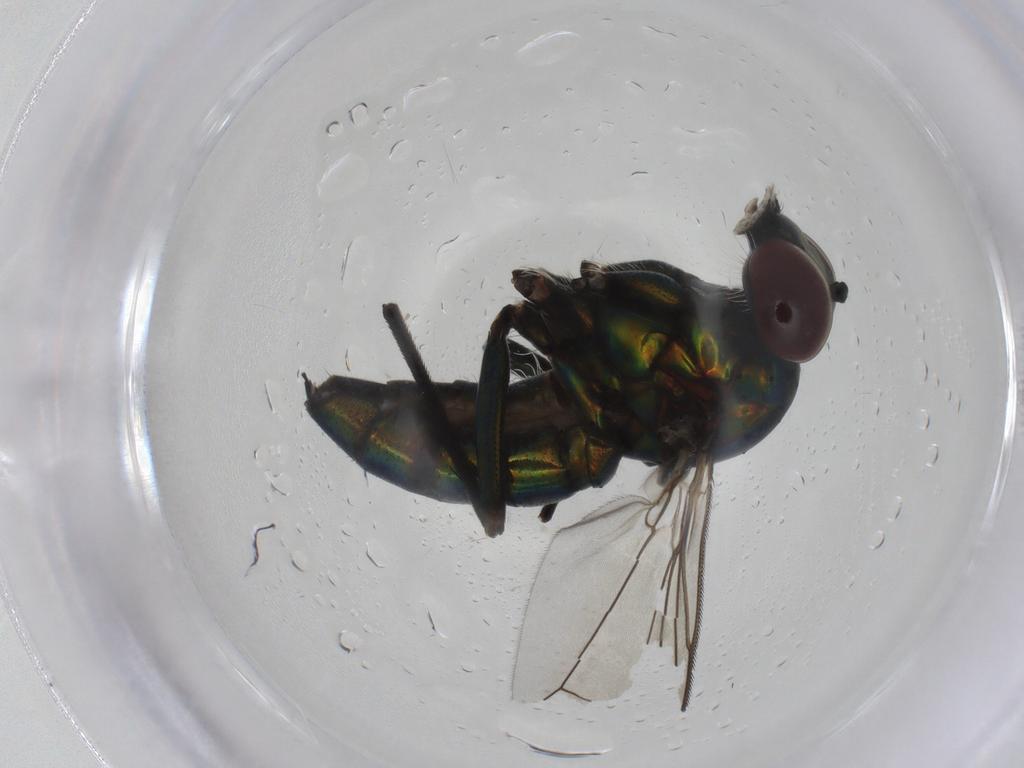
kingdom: Animalia
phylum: Arthropoda
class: Insecta
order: Diptera
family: Dolichopodidae
